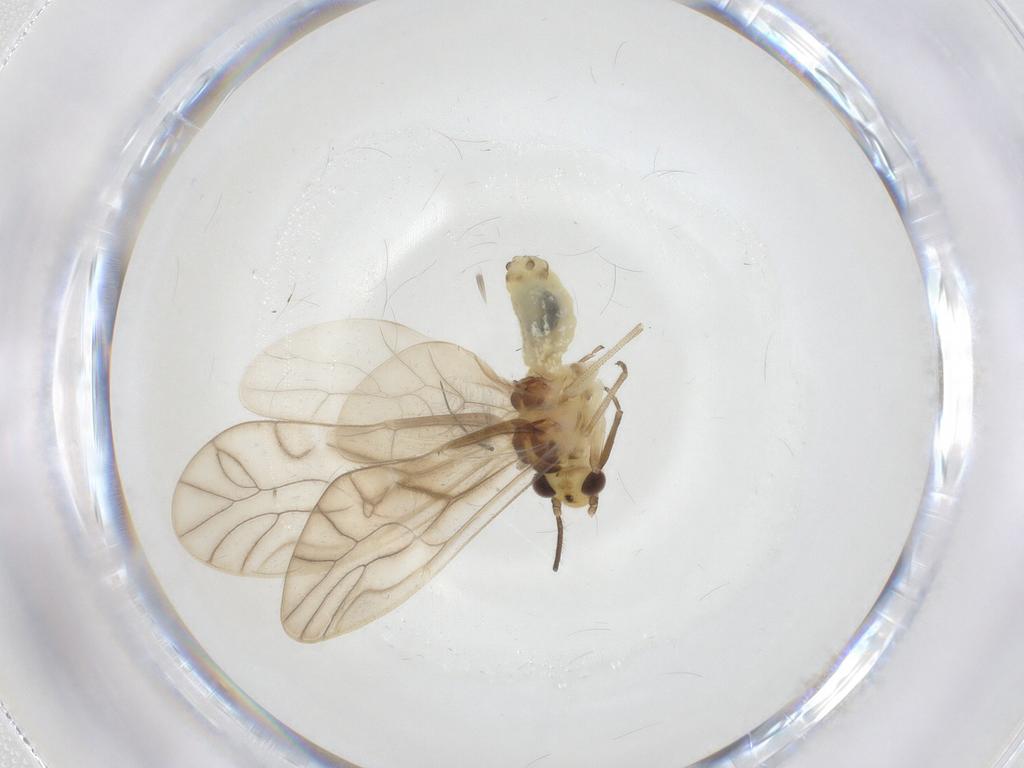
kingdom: Animalia
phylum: Arthropoda
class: Insecta
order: Psocodea
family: Caeciliusidae
